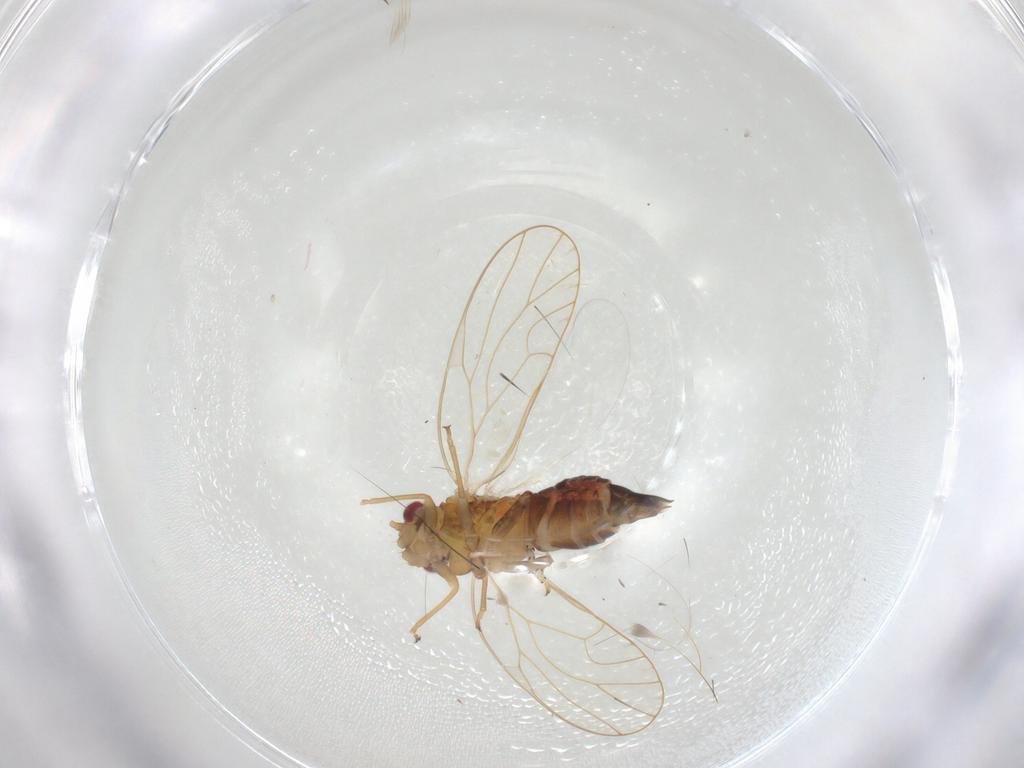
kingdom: Animalia
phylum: Arthropoda
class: Insecta
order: Hemiptera
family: Psyllidae
